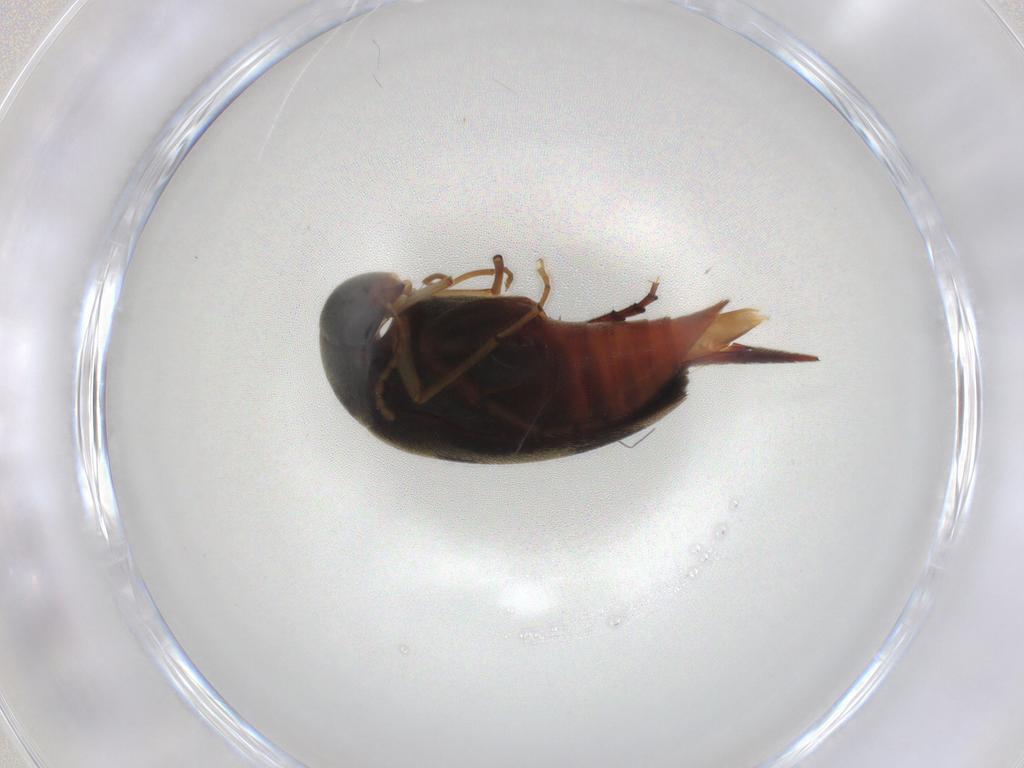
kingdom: Animalia
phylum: Arthropoda
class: Insecta
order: Coleoptera
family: Mordellidae
